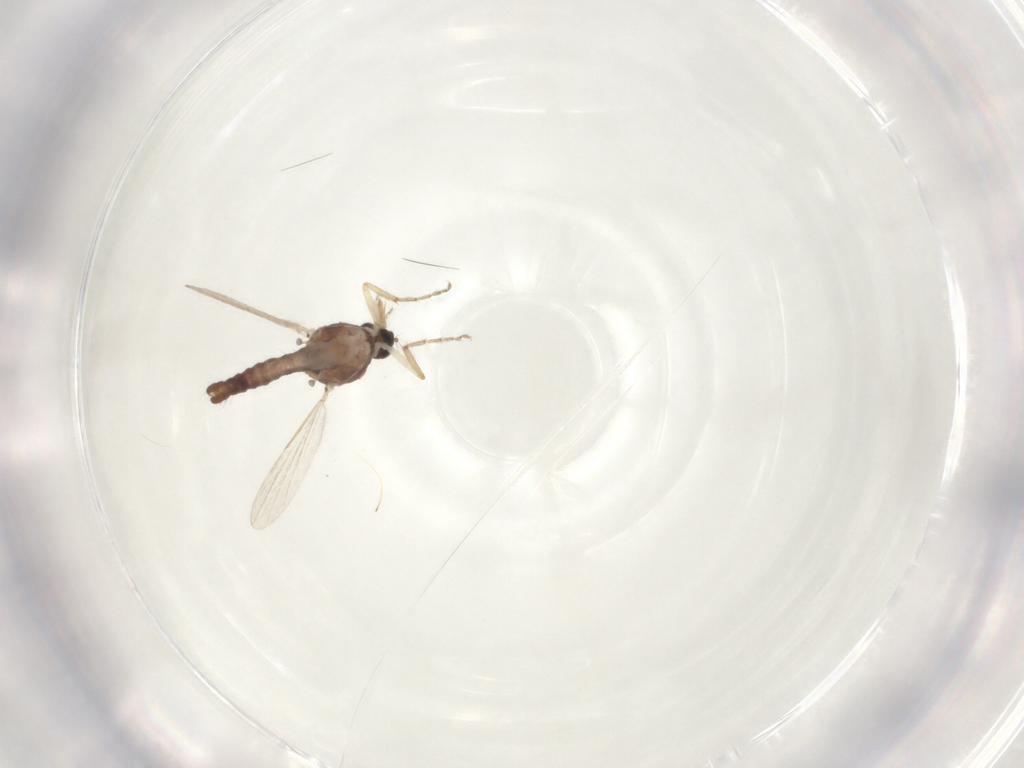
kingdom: Animalia
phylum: Arthropoda
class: Insecta
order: Diptera
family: Ceratopogonidae
